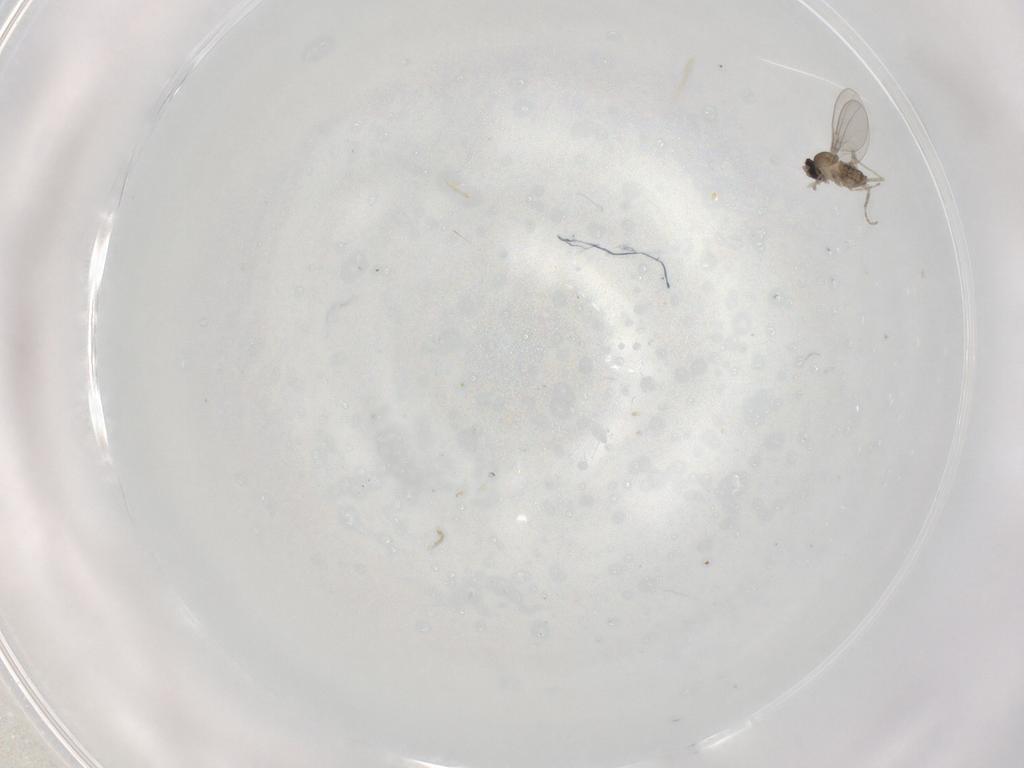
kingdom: Animalia
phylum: Arthropoda
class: Insecta
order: Diptera
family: Cecidomyiidae
